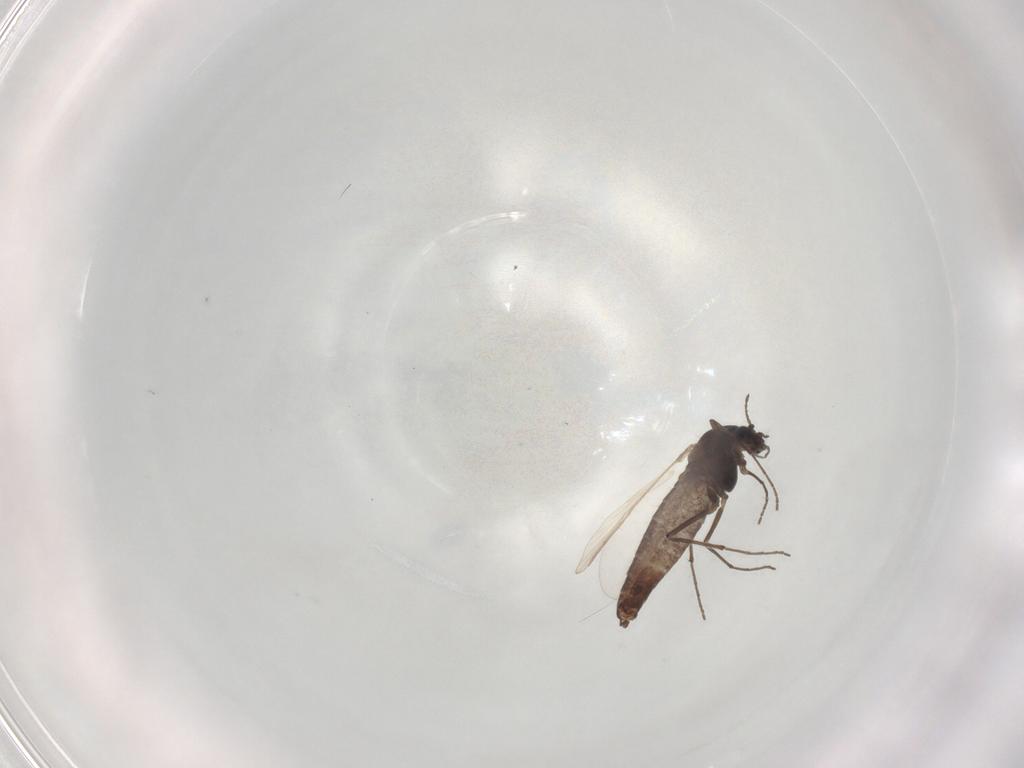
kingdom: Animalia
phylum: Arthropoda
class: Insecta
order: Diptera
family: Chironomidae
